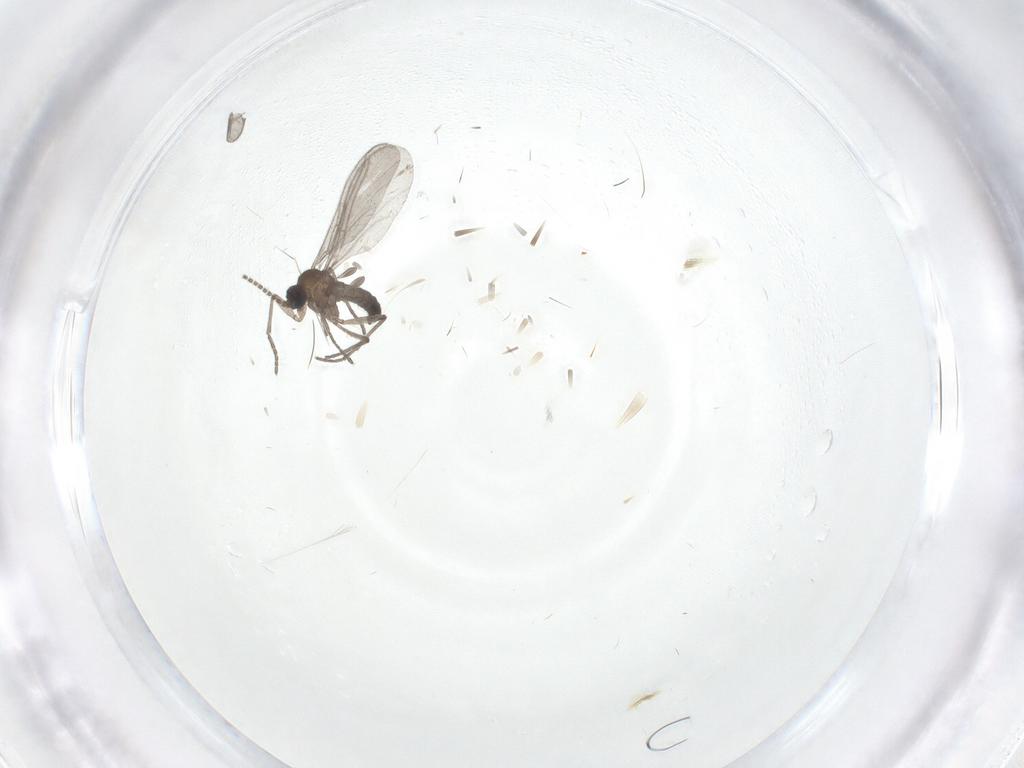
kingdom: Animalia
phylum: Arthropoda
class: Insecta
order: Diptera
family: Sciaridae
